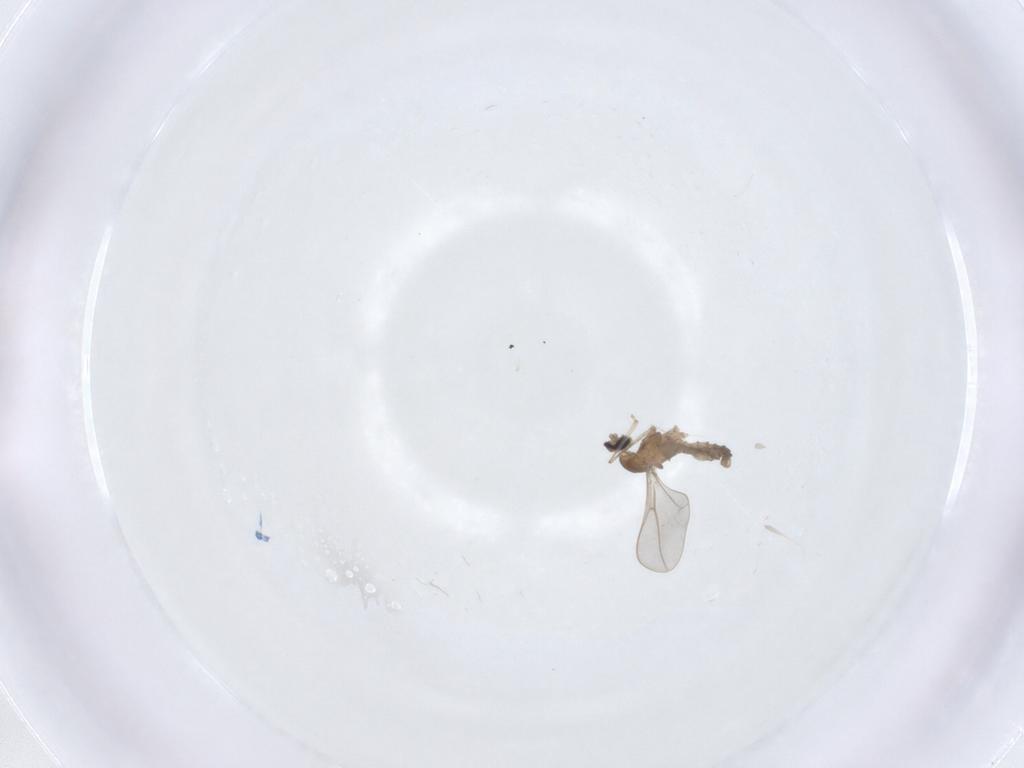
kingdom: Animalia
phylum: Arthropoda
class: Insecta
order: Diptera
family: Cecidomyiidae
